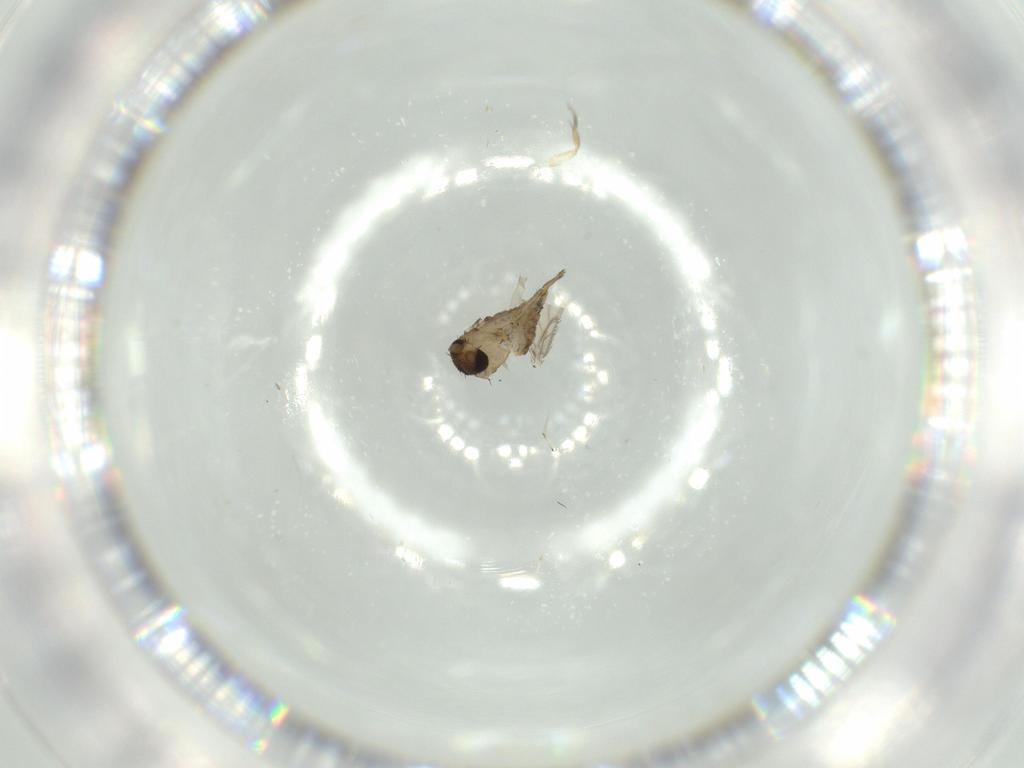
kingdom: Animalia
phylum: Arthropoda
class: Insecta
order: Diptera
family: Phoridae
